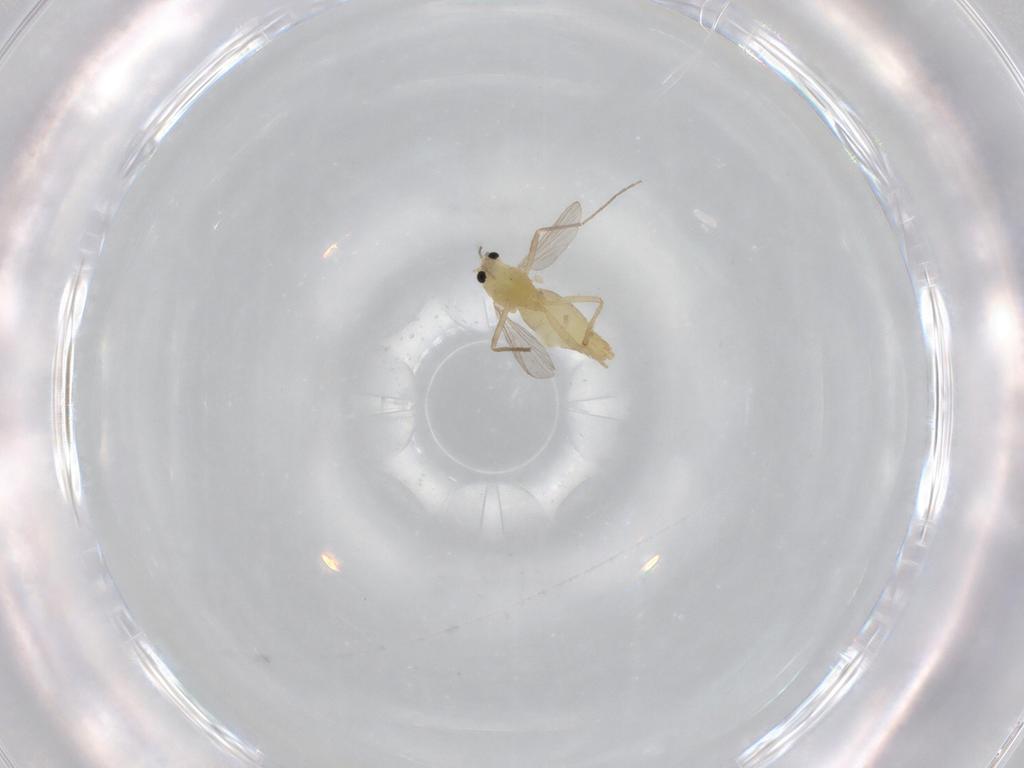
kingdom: Animalia
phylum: Arthropoda
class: Insecta
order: Diptera
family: Chironomidae
